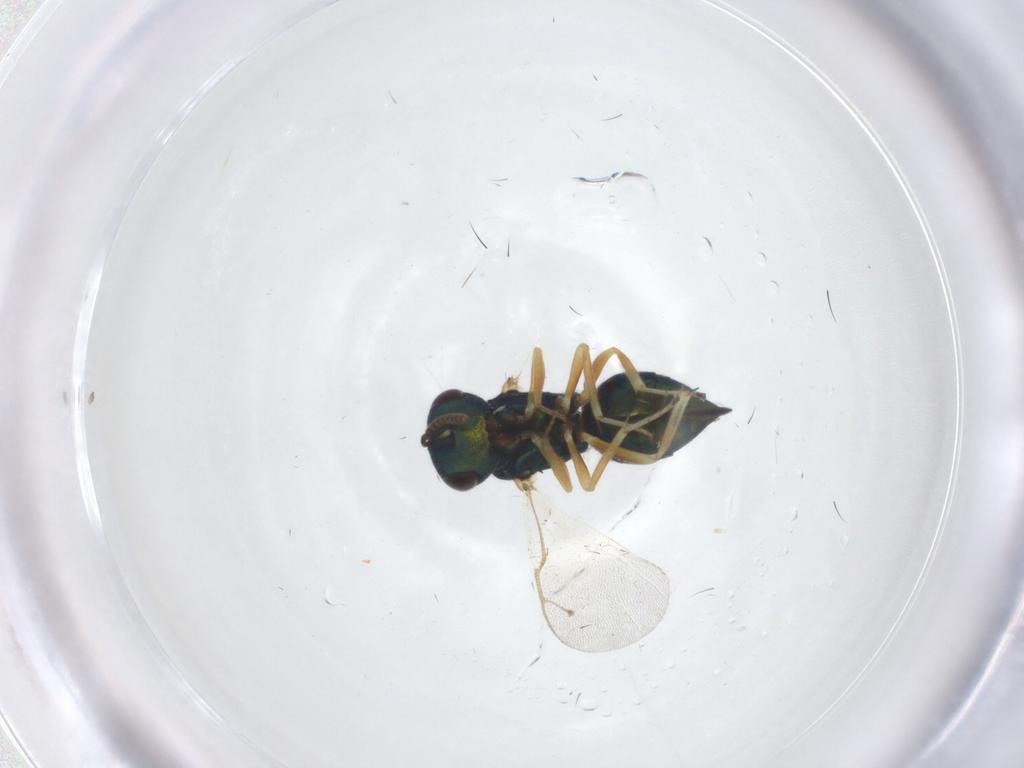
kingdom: Animalia
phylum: Arthropoda
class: Insecta
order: Hymenoptera
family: Pteromalidae
